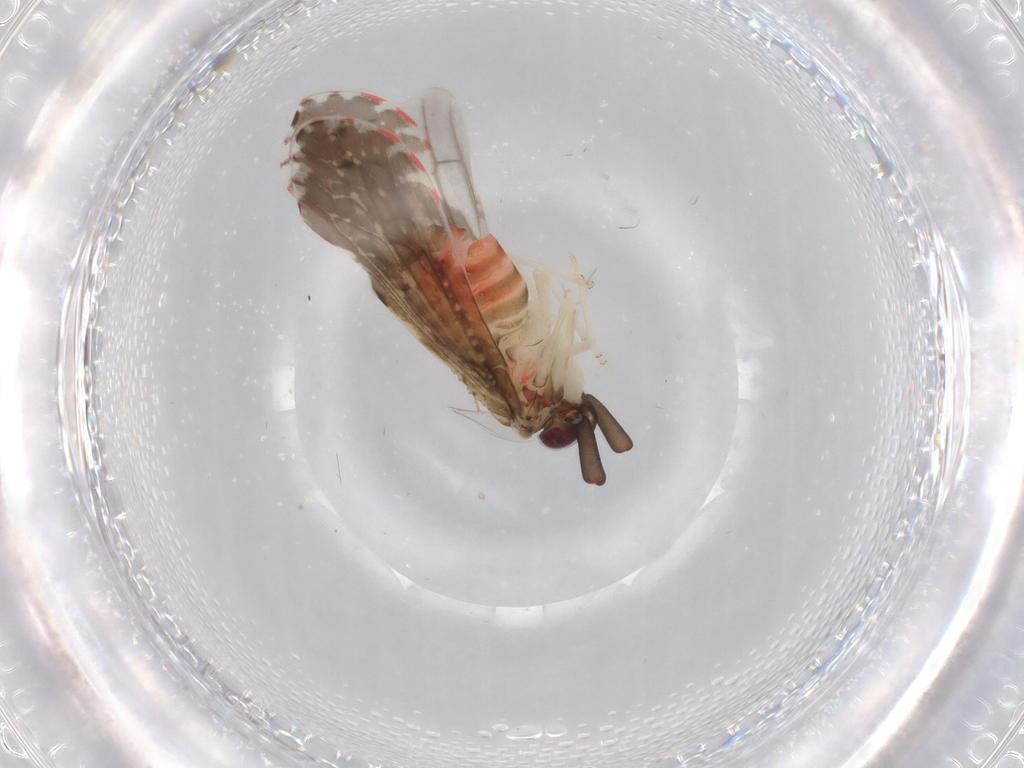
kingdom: Animalia
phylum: Arthropoda
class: Insecta
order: Hemiptera
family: Derbidae
